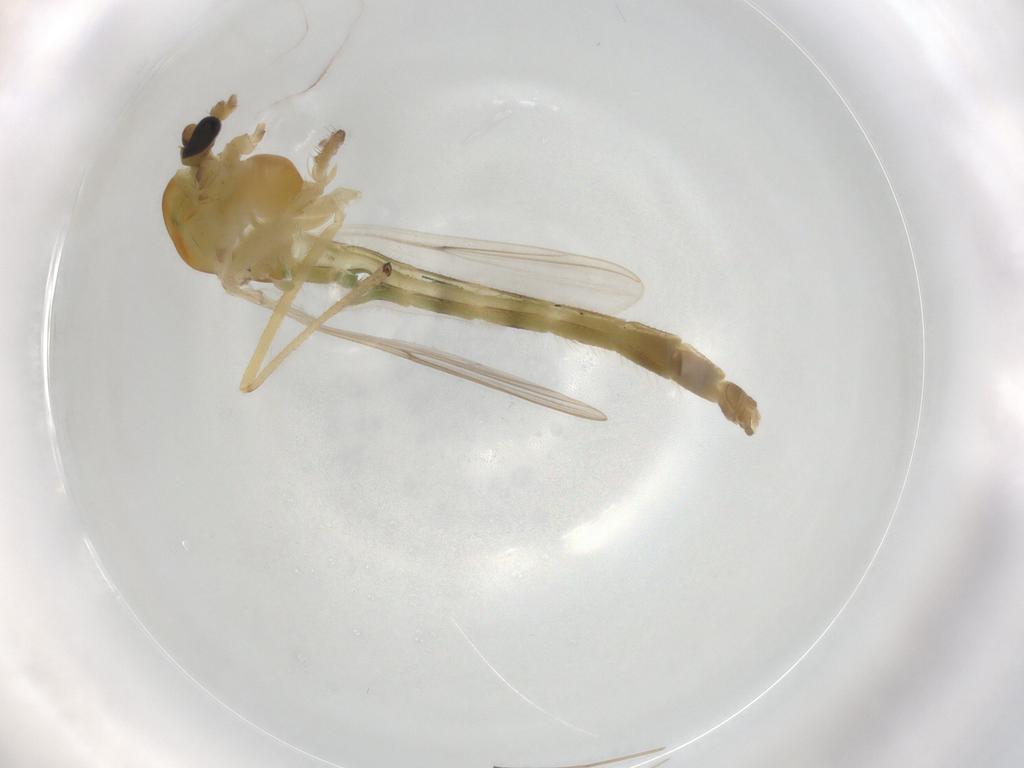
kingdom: Animalia
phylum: Arthropoda
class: Insecta
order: Diptera
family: Chironomidae
